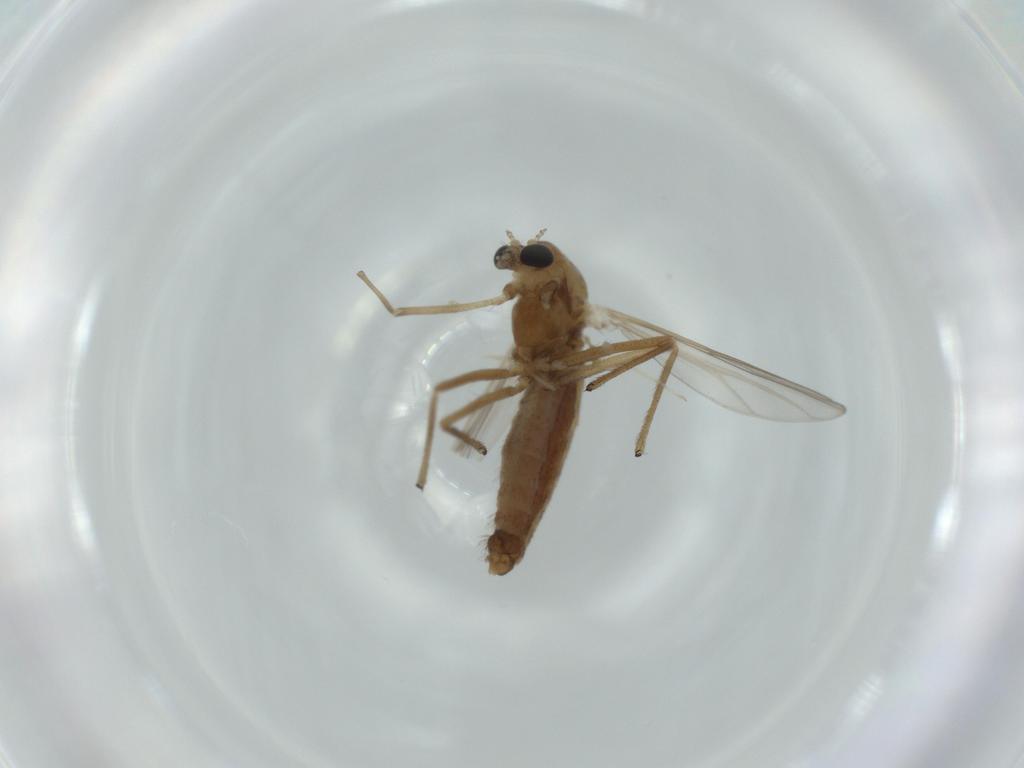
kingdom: Animalia
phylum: Arthropoda
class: Insecta
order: Diptera
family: Chironomidae
